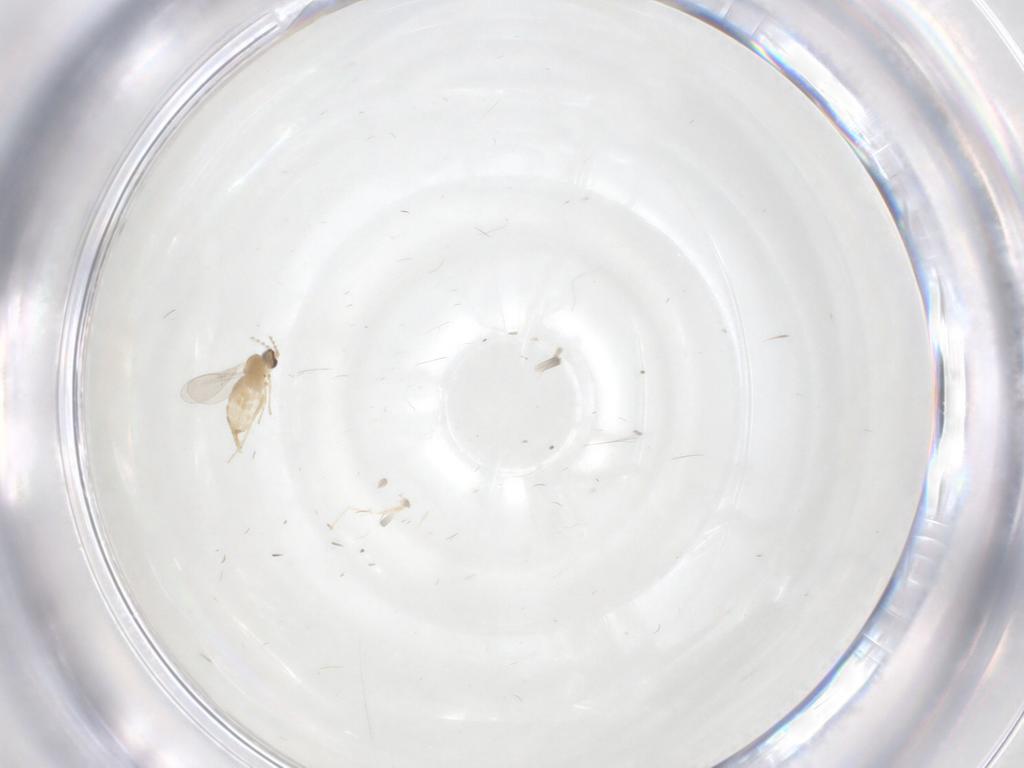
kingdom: Animalia
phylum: Arthropoda
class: Insecta
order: Diptera
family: Cecidomyiidae
